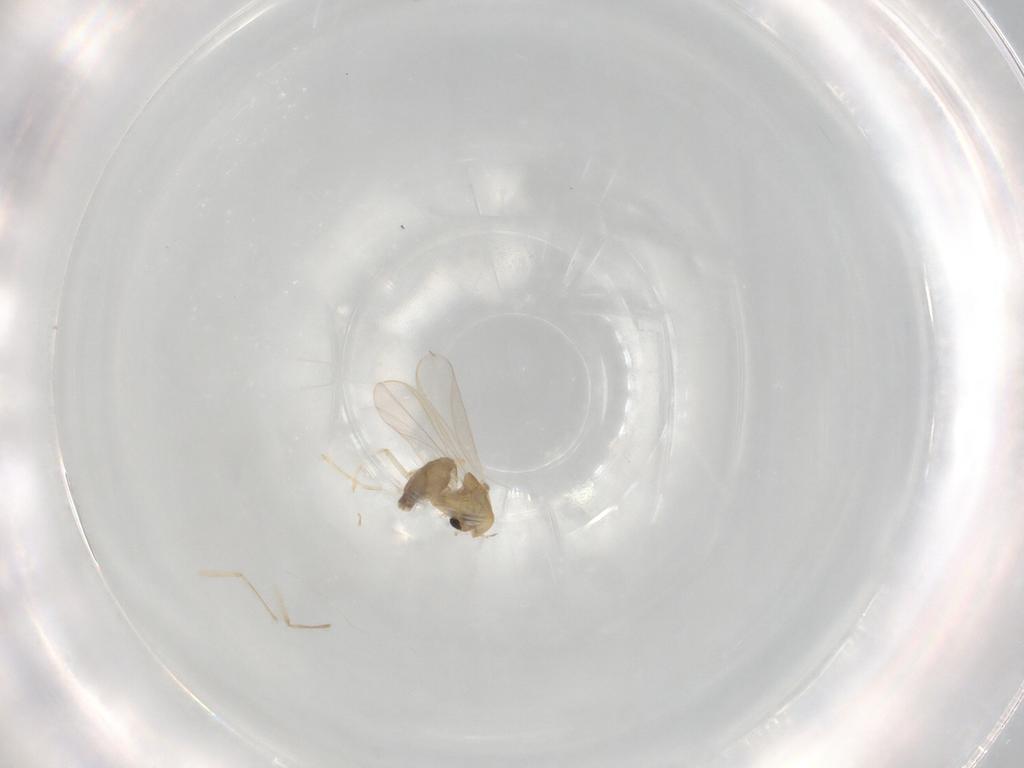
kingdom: Animalia
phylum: Arthropoda
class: Insecta
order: Diptera
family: Chironomidae
